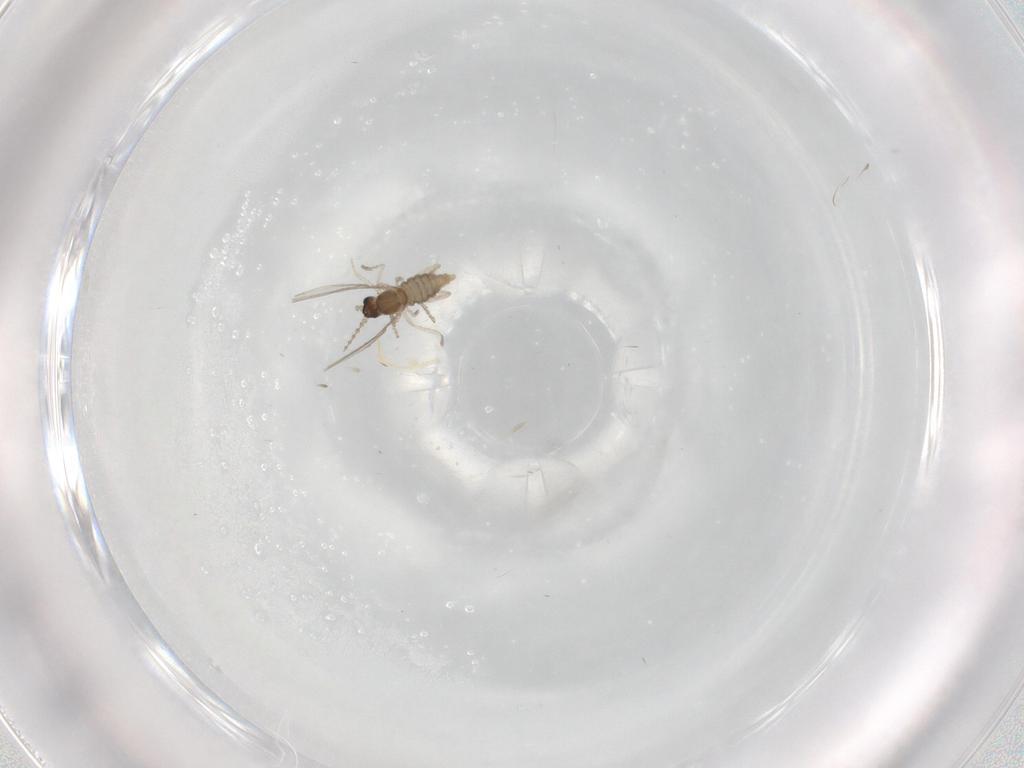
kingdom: Animalia
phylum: Arthropoda
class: Insecta
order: Diptera
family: Cecidomyiidae
